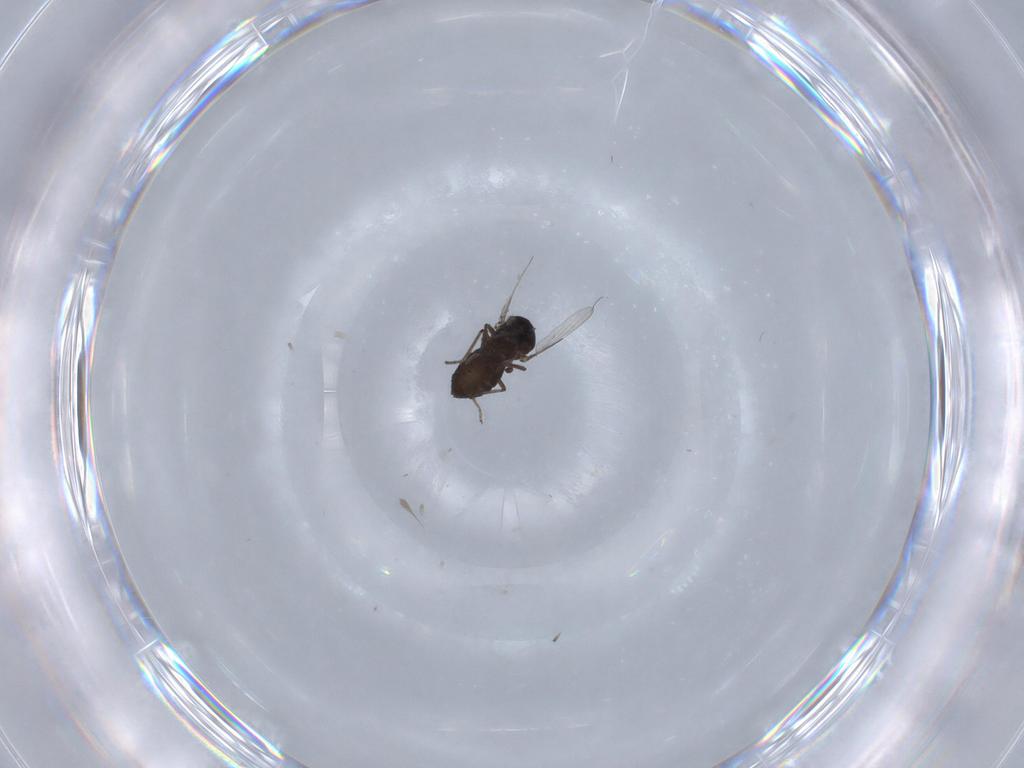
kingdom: Animalia
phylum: Arthropoda
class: Insecta
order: Diptera
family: Ceratopogonidae
